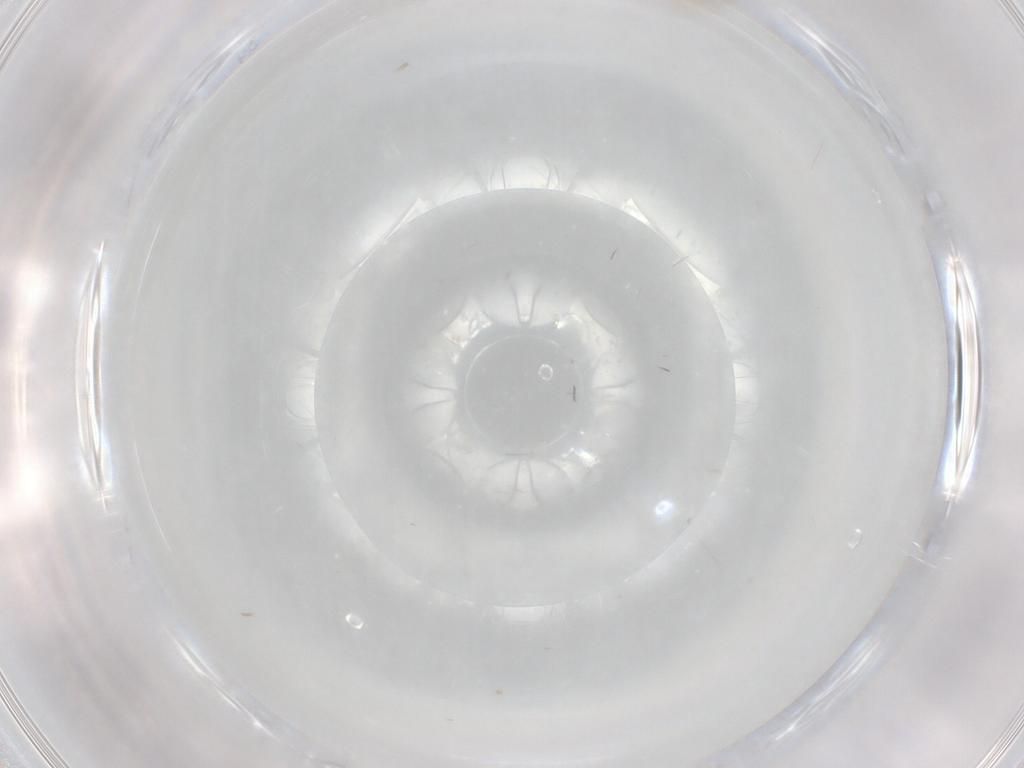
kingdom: Animalia
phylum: Arthropoda
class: Insecta
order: Diptera
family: Cecidomyiidae
